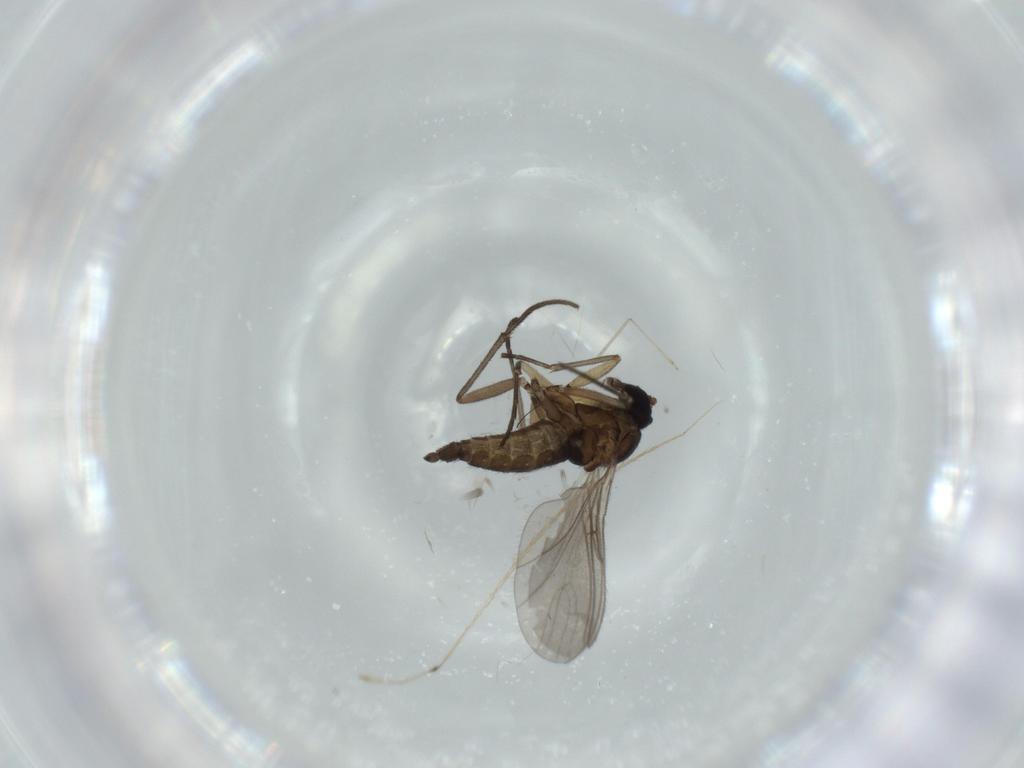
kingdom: Animalia
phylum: Arthropoda
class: Insecta
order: Diptera
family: Sciaridae
